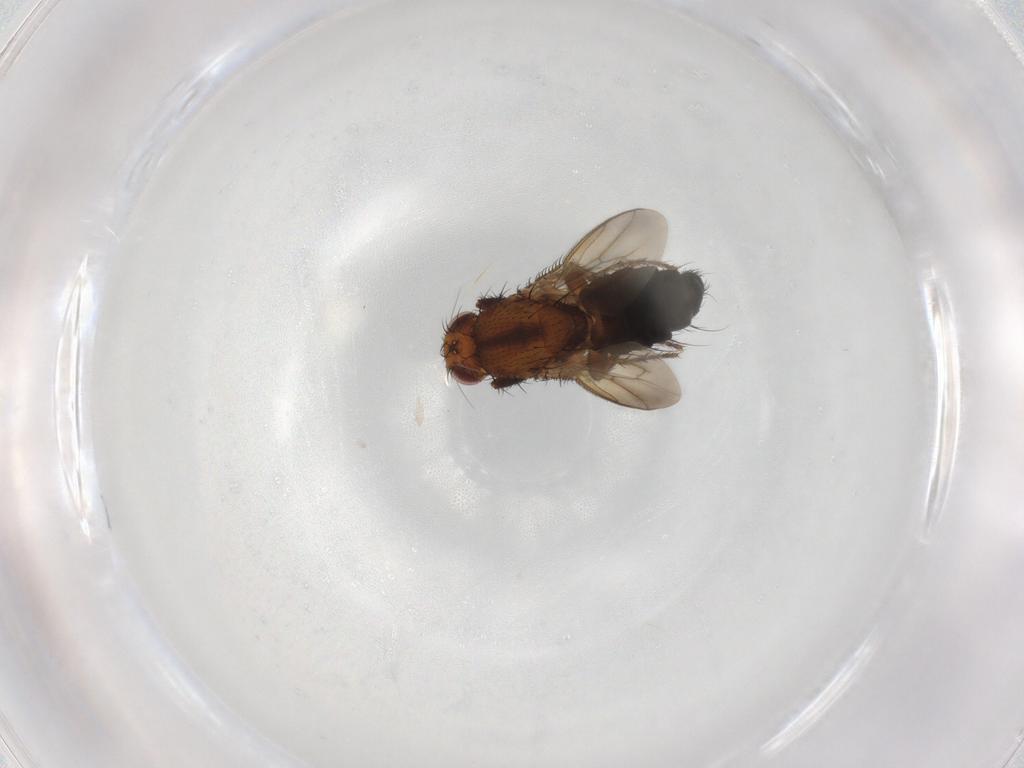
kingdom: Animalia
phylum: Arthropoda
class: Insecta
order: Diptera
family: Sphaeroceridae
